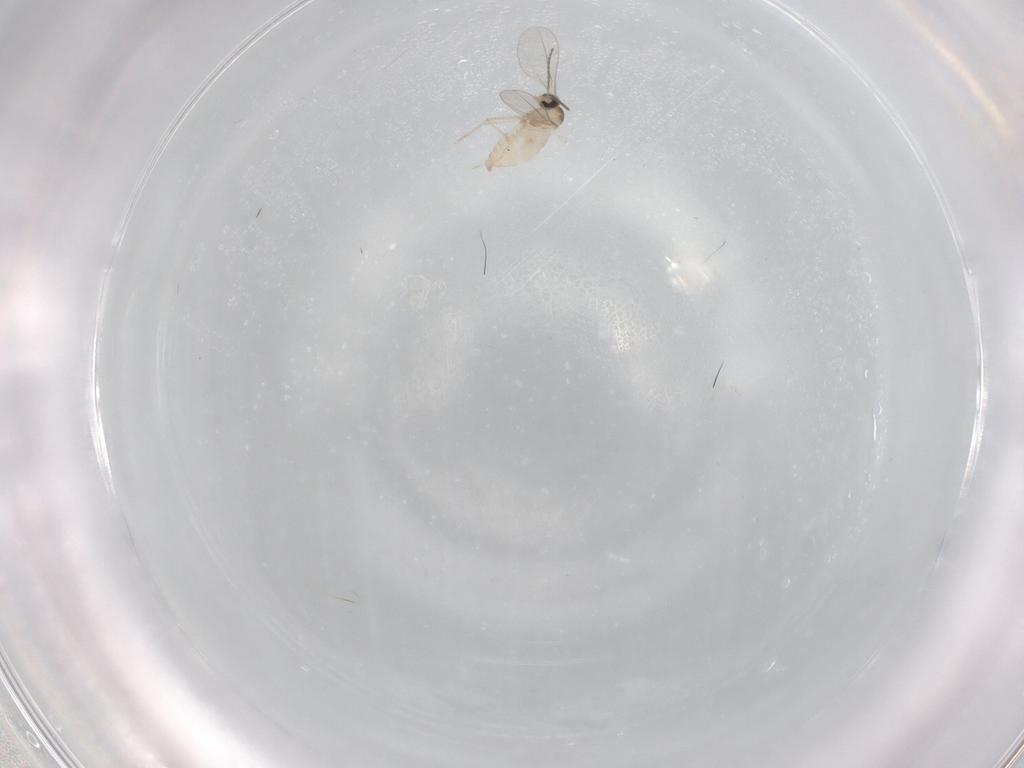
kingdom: Animalia
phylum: Arthropoda
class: Insecta
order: Diptera
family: Cecidomyiidae
